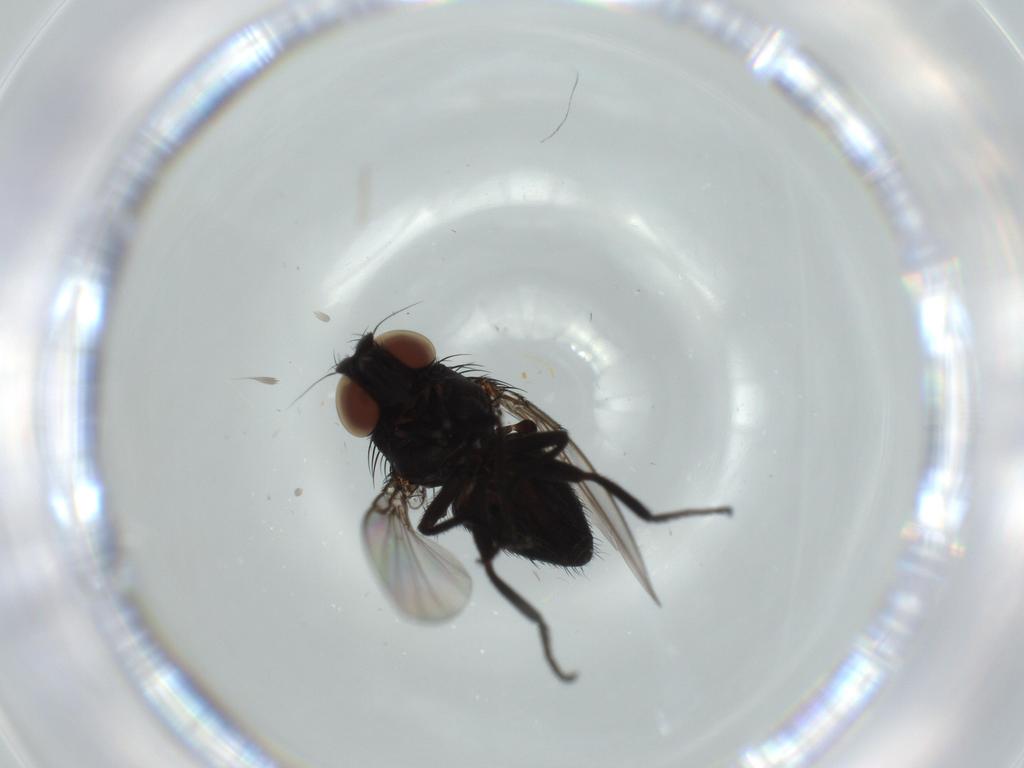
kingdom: Animalia
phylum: Arthropoda
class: Insecta
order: Diptera
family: Milichiidae
